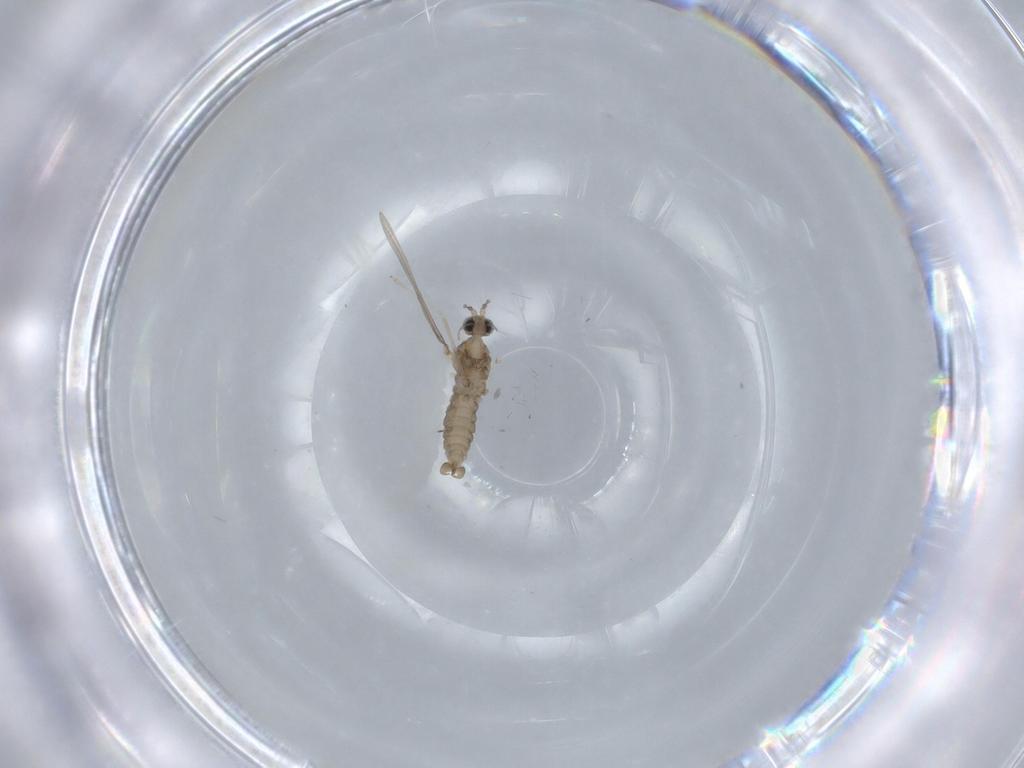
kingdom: Animalia
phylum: Arthropoda
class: Insecta
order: Diptera
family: Cecidomyiidae
